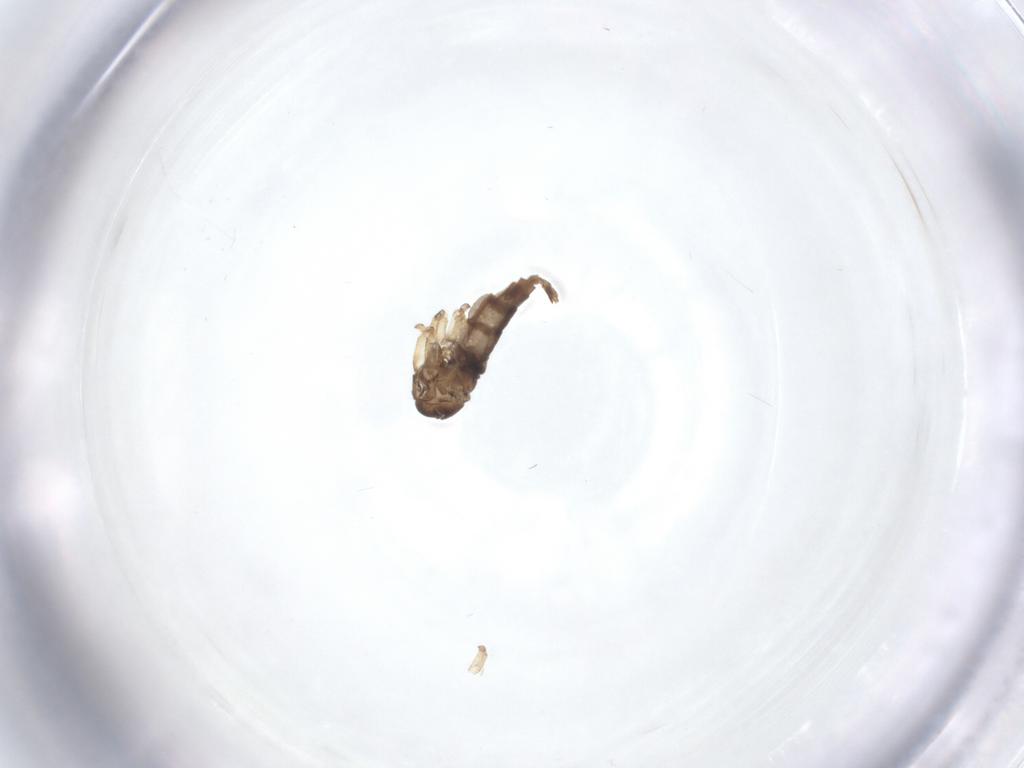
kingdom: Animalia
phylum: Arthropoda
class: Insecta
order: Diptera
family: Sciaridae
